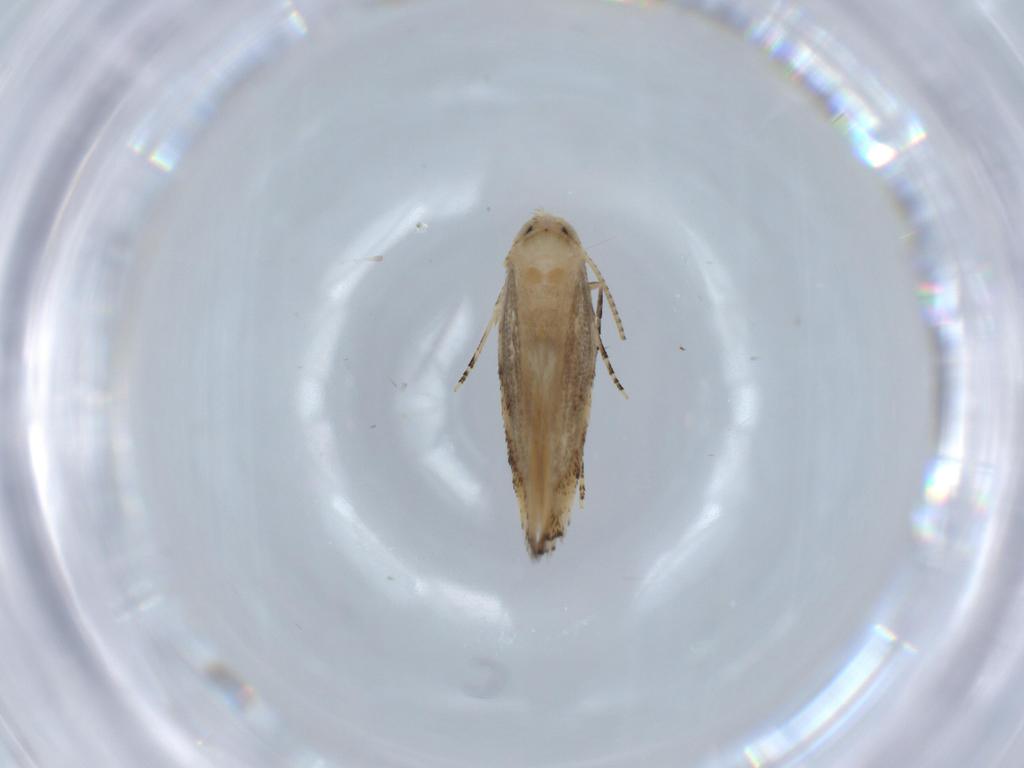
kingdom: Animalia
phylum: Arthropoda
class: Insecta
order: Lepidoptera
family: Bucculatricidae
